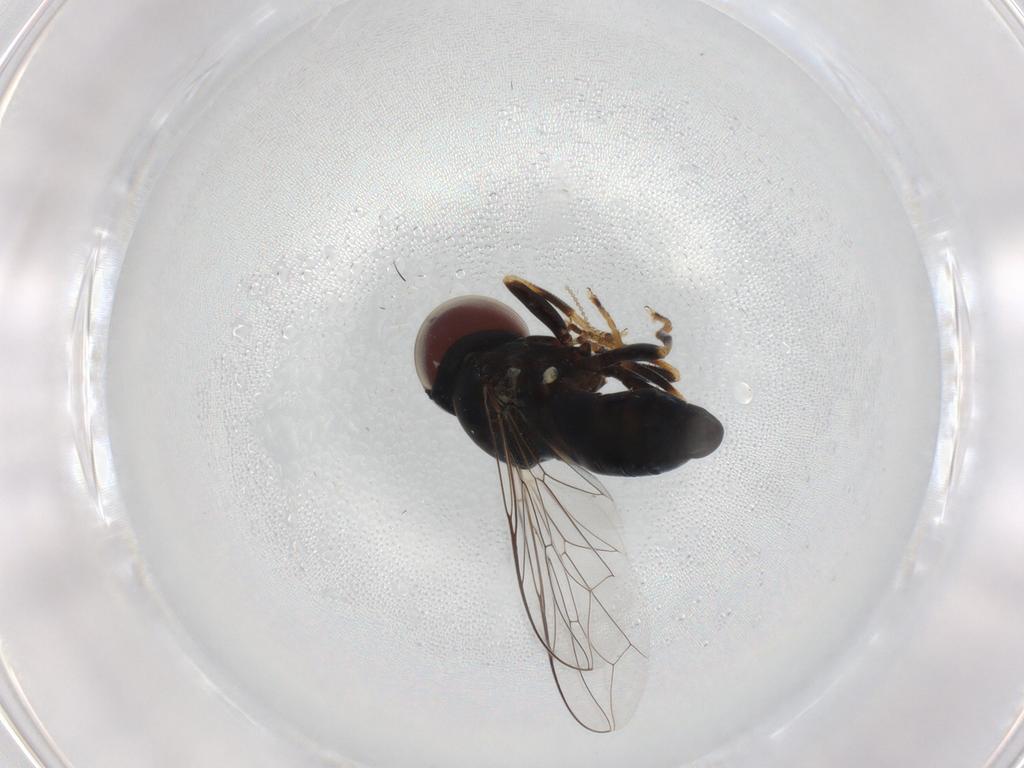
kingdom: Animalia
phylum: Arthropoda
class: Insecta
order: Diptera
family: Pipunculidae
